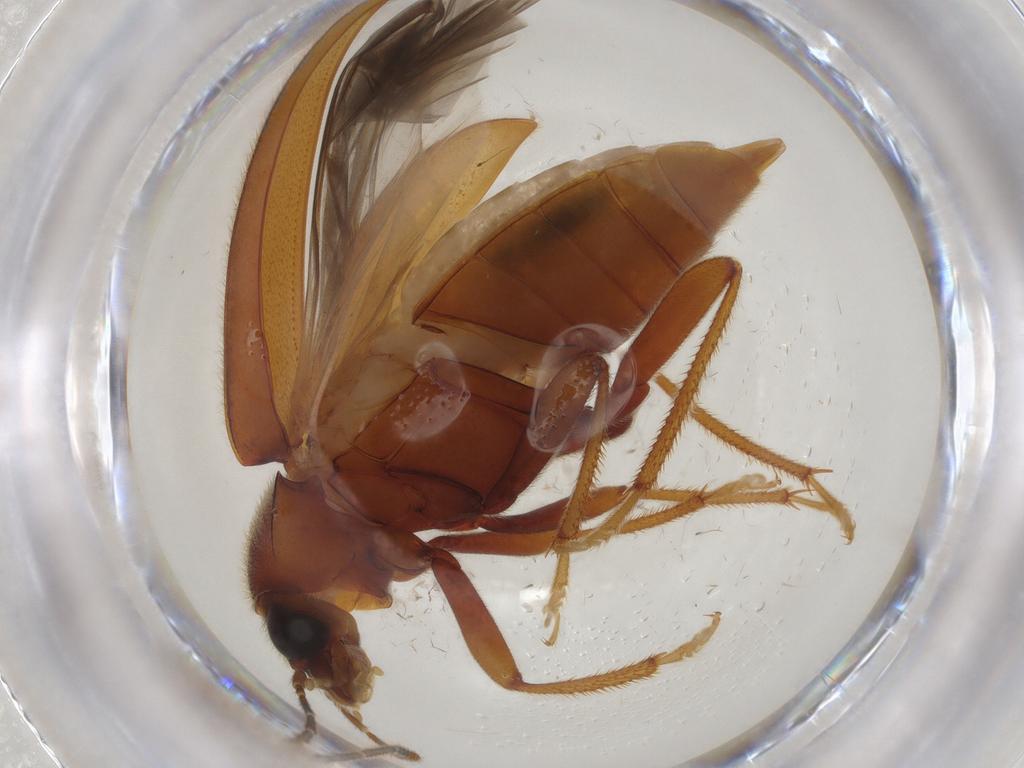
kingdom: Animalia
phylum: Arthropoda
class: Insecta
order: Coleoptera
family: Ptilodactylidae
